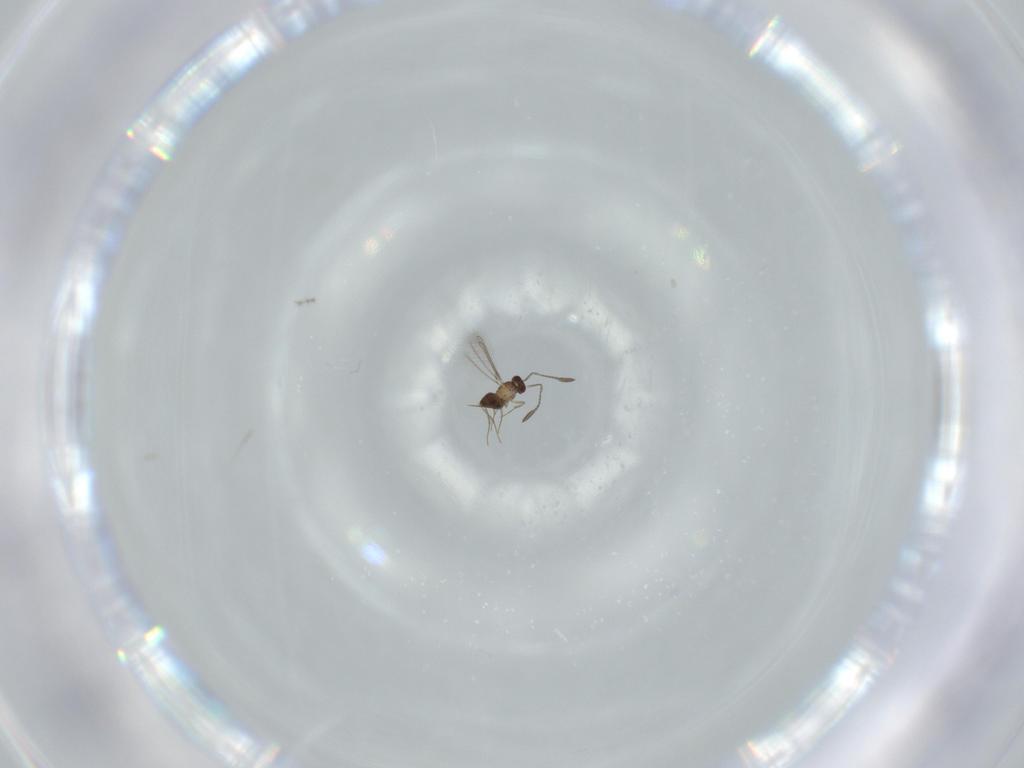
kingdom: Animalia
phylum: Arthropoda
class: Insecta
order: Hymenoptera
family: Mymaridae
